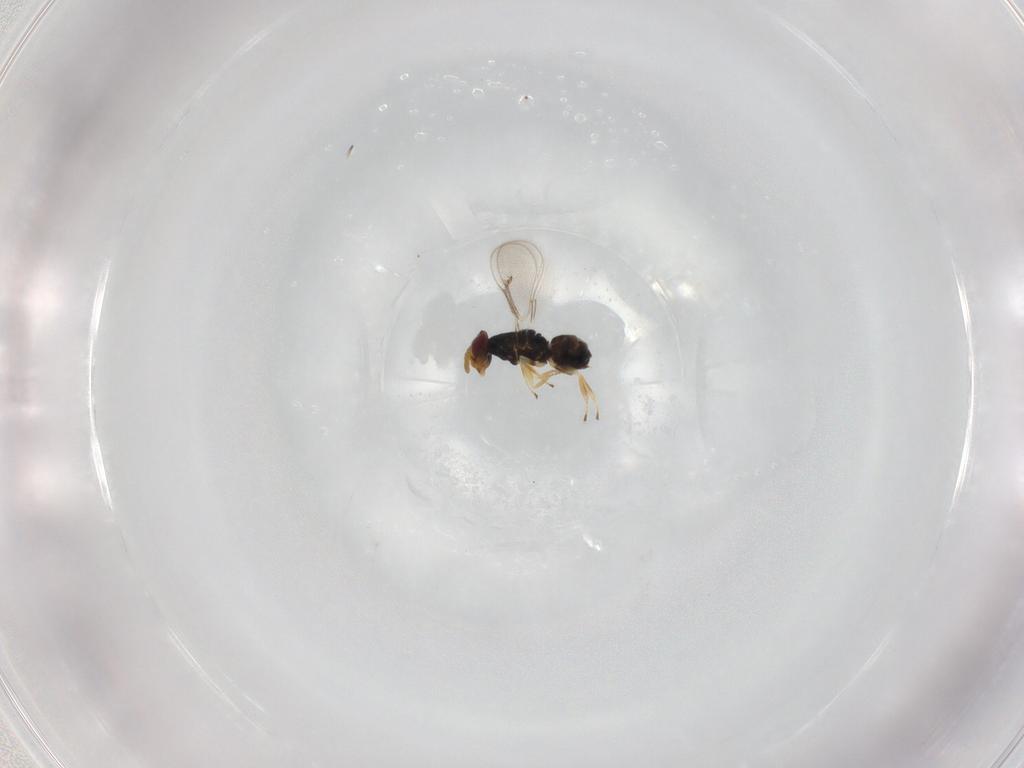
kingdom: Animalia
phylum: Arthropoda
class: Insecta
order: Hymenoptera
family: Eulophidae
